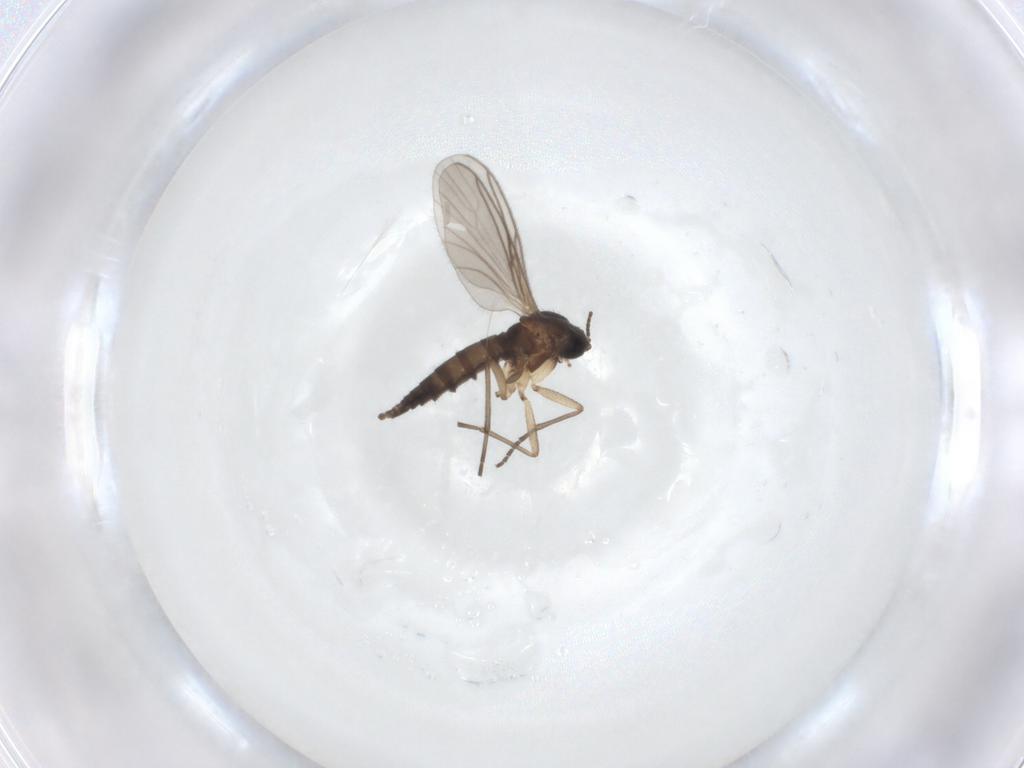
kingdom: Animalia
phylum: Arthropoda
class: Insecta
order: Diptera
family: Sciaridae
